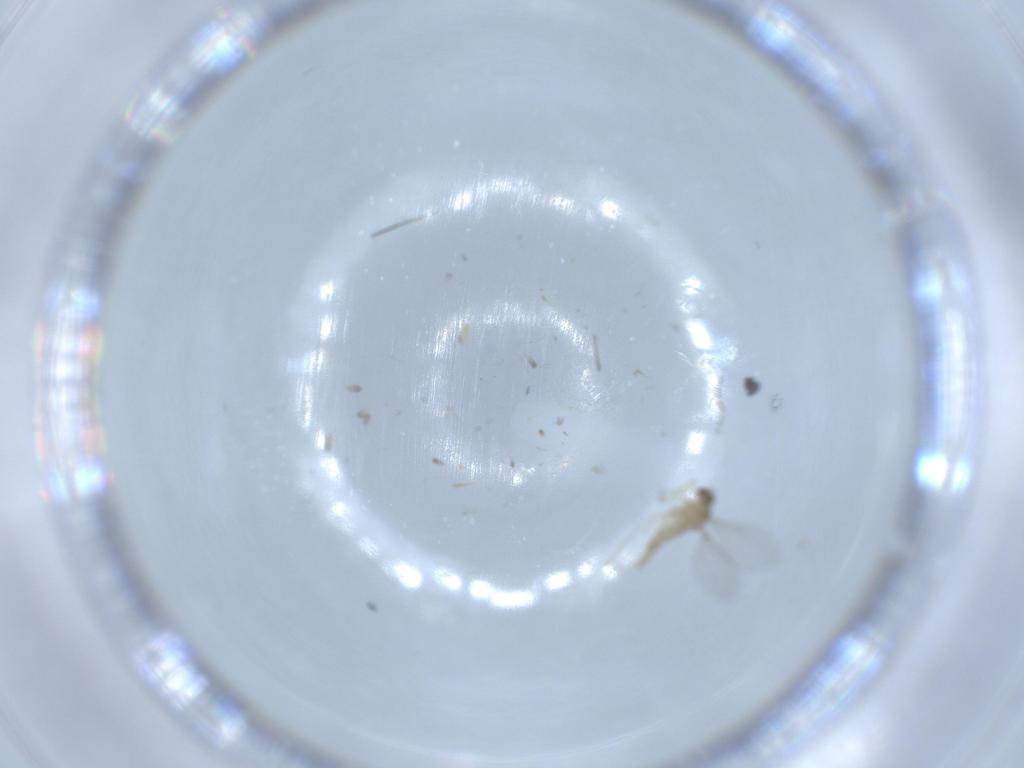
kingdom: Animalia
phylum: Arthropoda
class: Insecta
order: Diptera
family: Cecidomyiidae
